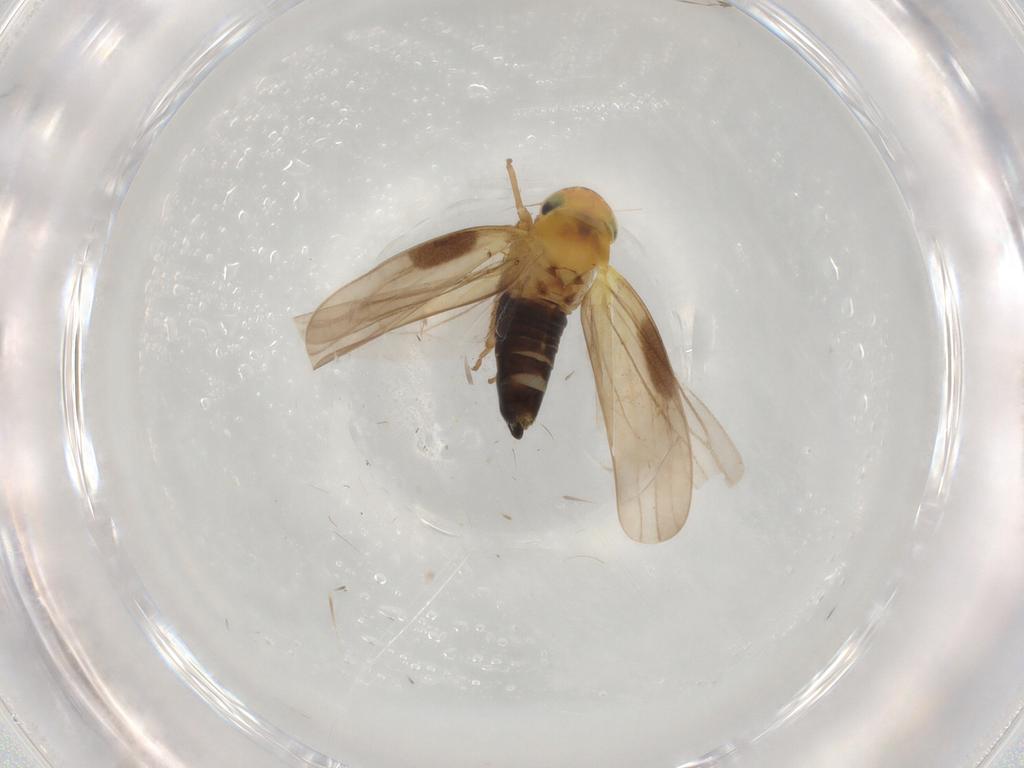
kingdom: Animalia
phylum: Arthropoda
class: Insecta
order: Hemiptera
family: Cicadellidae
